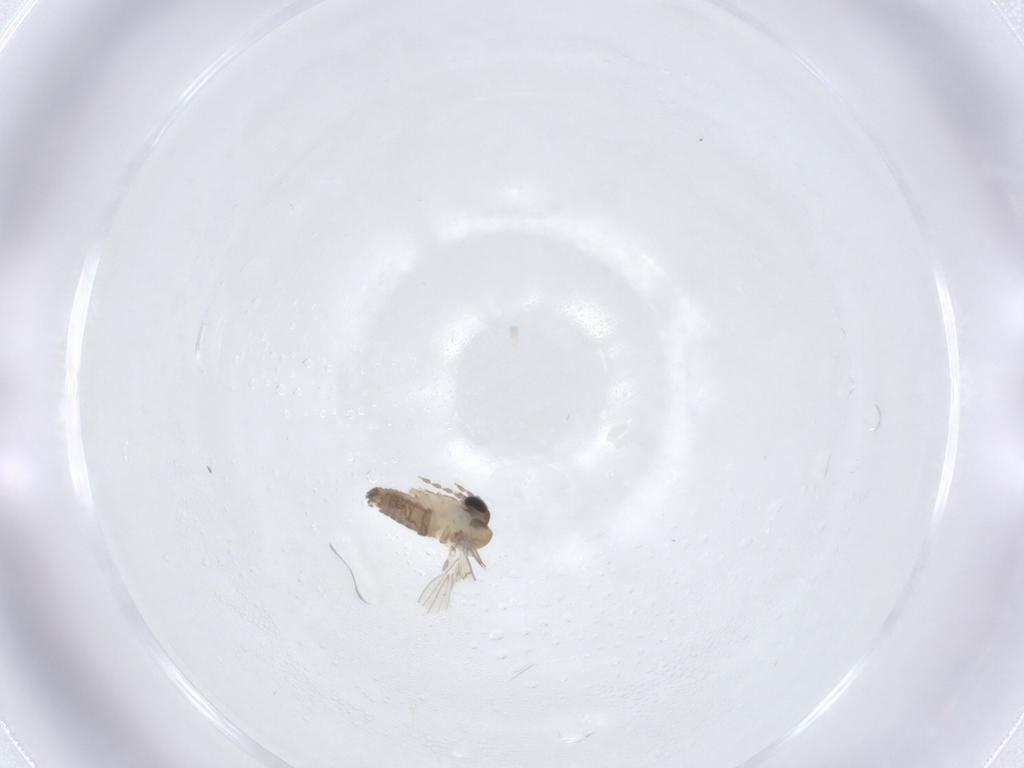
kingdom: Animalia
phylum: Arthropoda
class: Insecta
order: Diptera
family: Psychodidae
